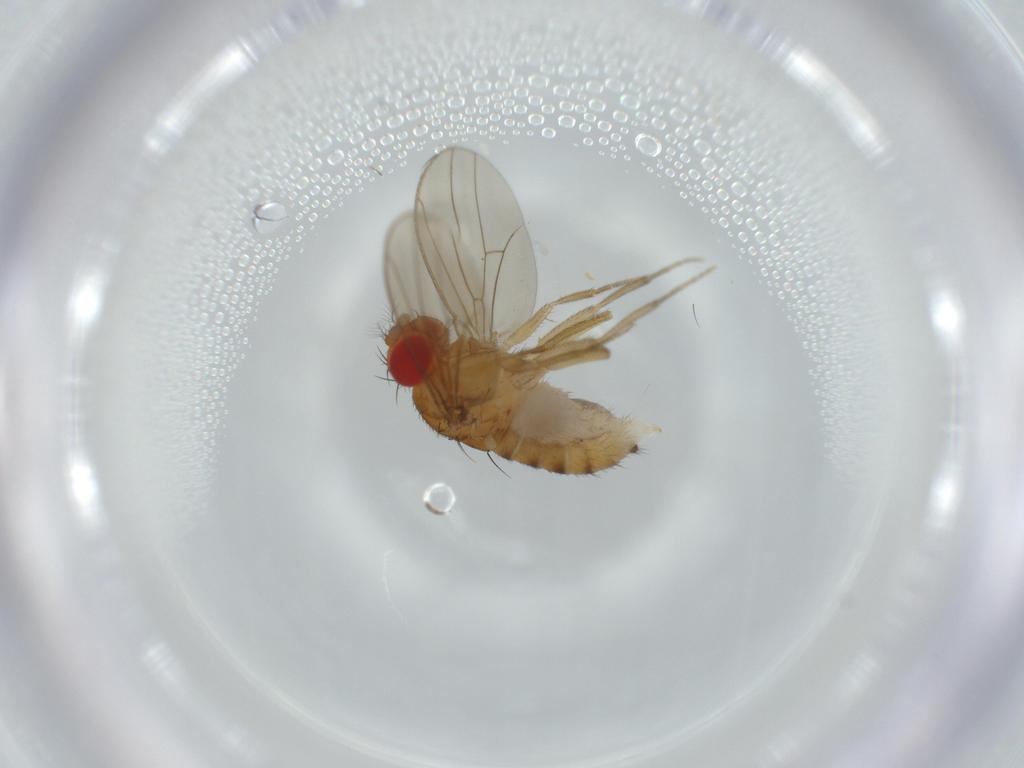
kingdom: Animalia
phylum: Arthropoda
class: Insecta
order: Diptera
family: Drosophilidae
